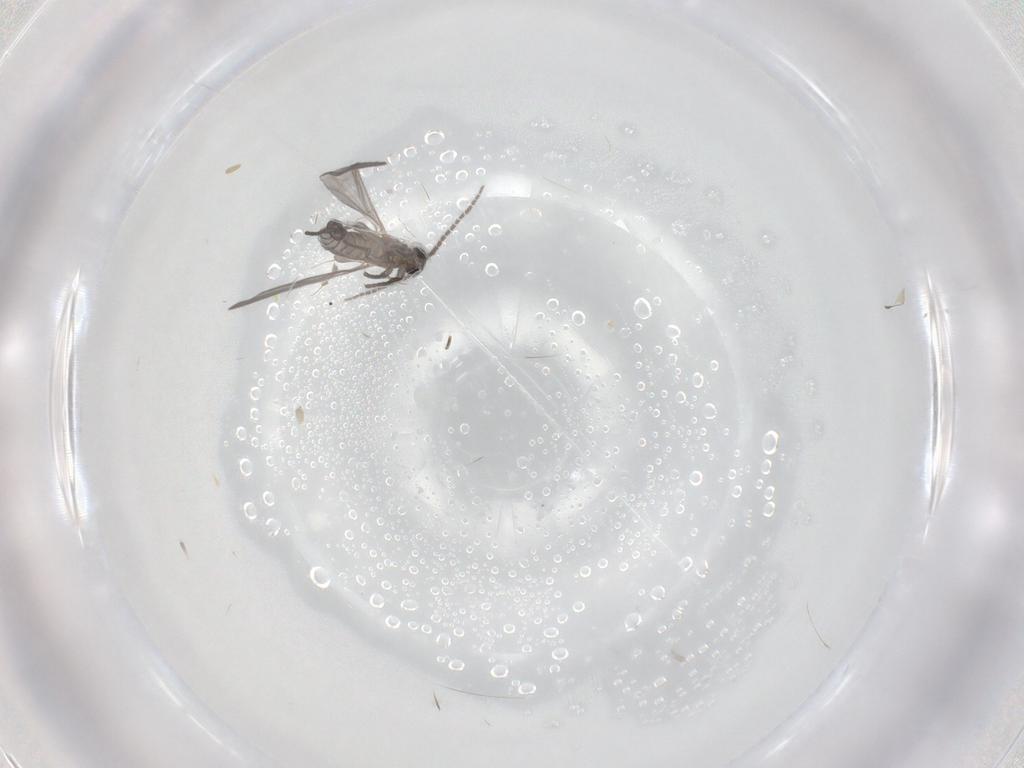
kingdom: Animalia
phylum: Arthropoda
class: Insecta
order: Diptera
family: Sciaridae
